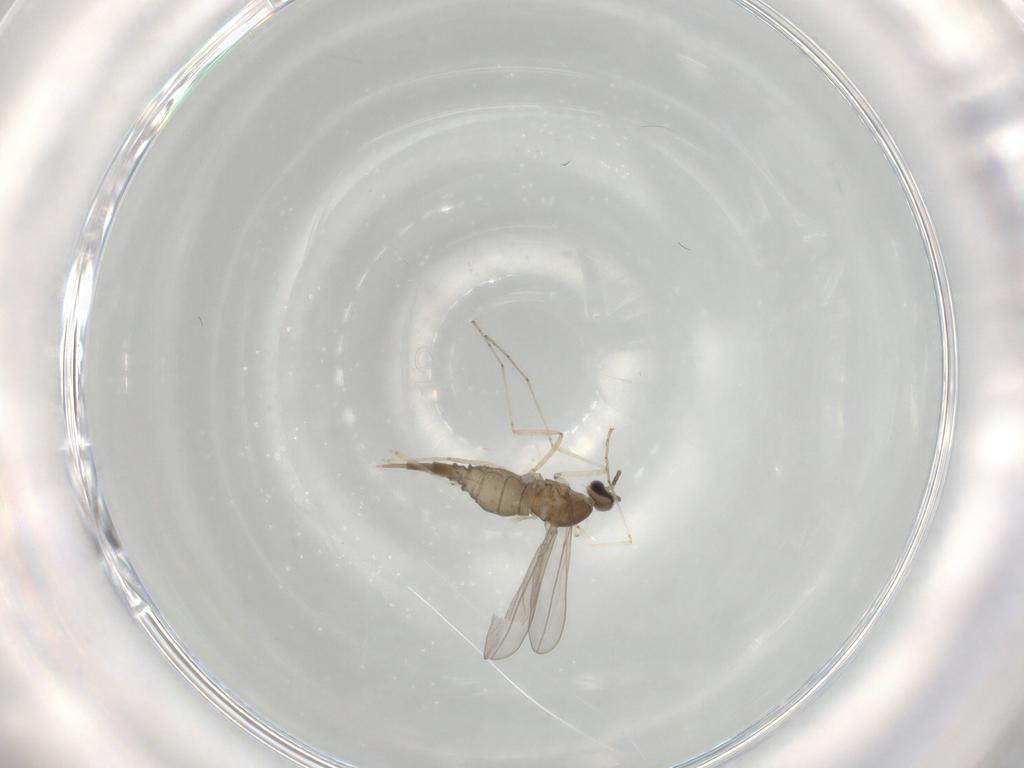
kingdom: Animalia
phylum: Arthropoda
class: Insecta
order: Diptera
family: Cecidomyiidae
